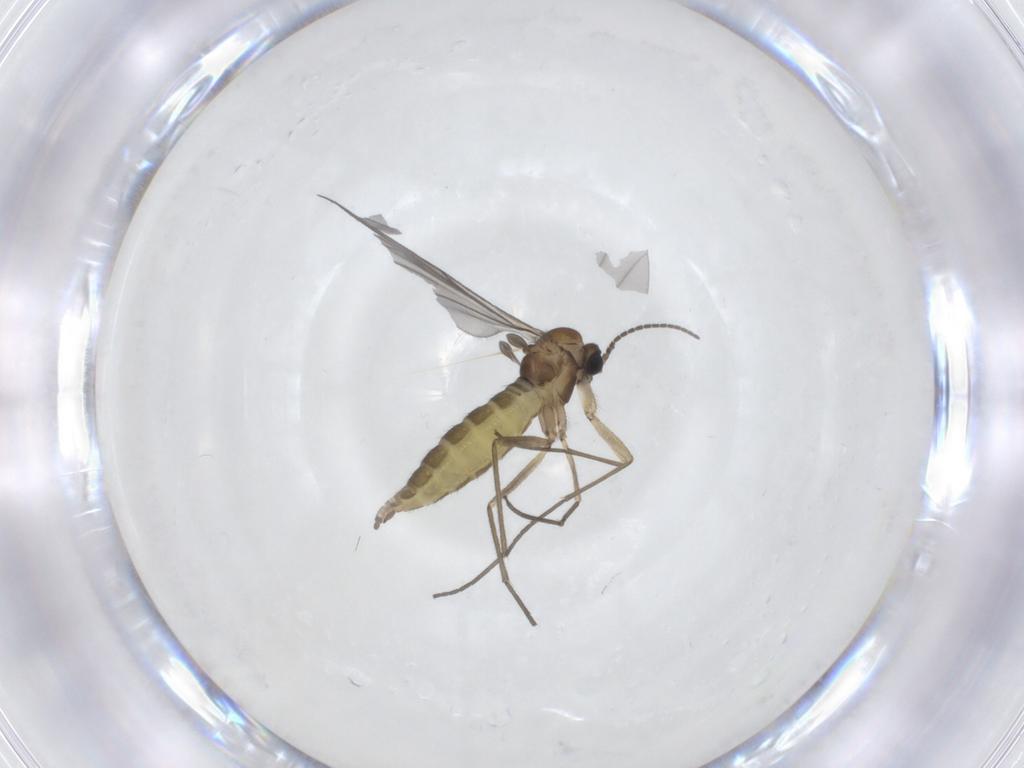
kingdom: Animalia
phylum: Arthropoda
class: Insecta
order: Diptera
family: Sciaridae
